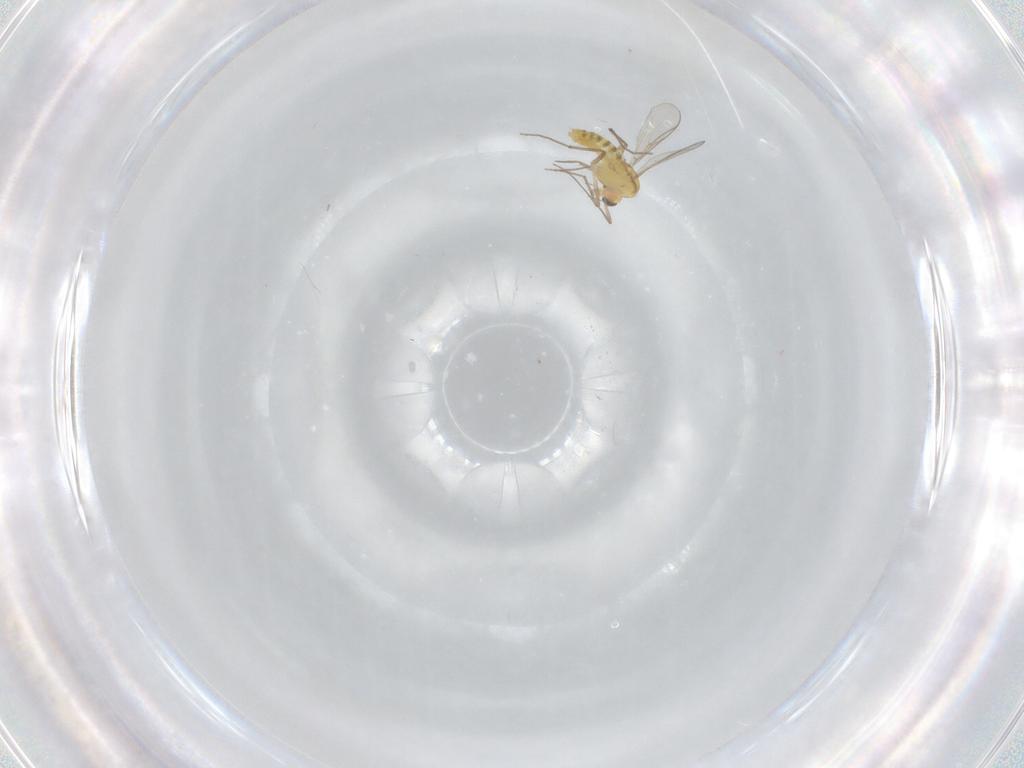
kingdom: Animalia
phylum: Arthropoda
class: Insecta
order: Diptera
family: Chironomidae
